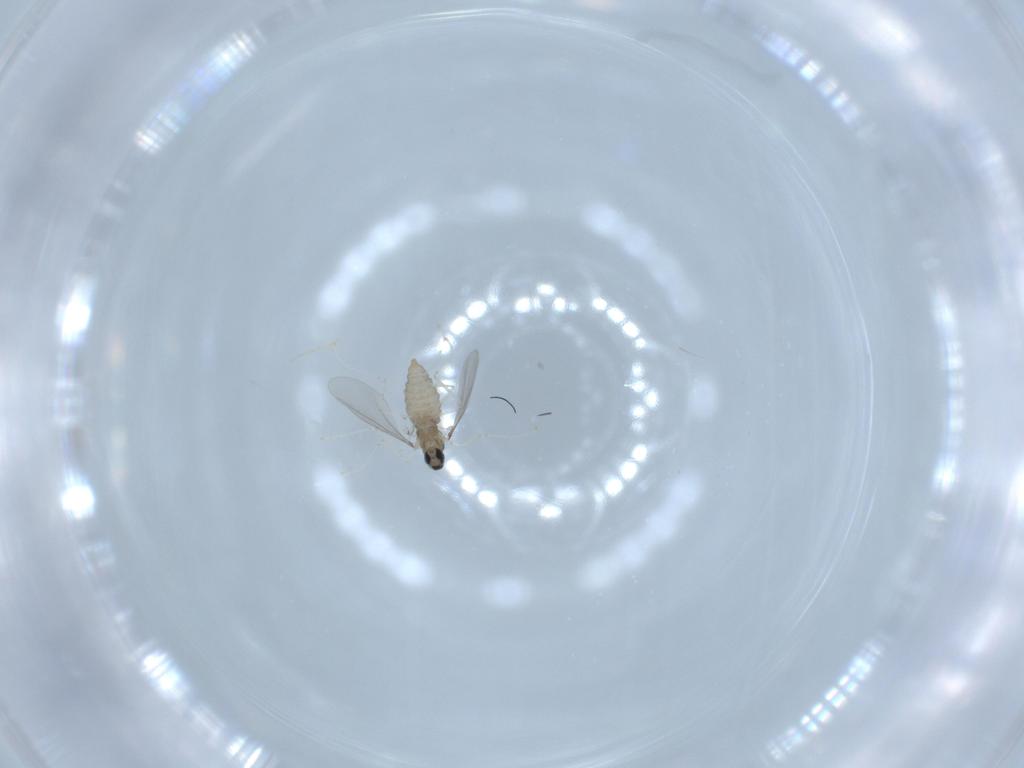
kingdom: Animalia
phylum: Arthropoda
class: Insecta
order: Diptera
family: Cecidomyiidae
